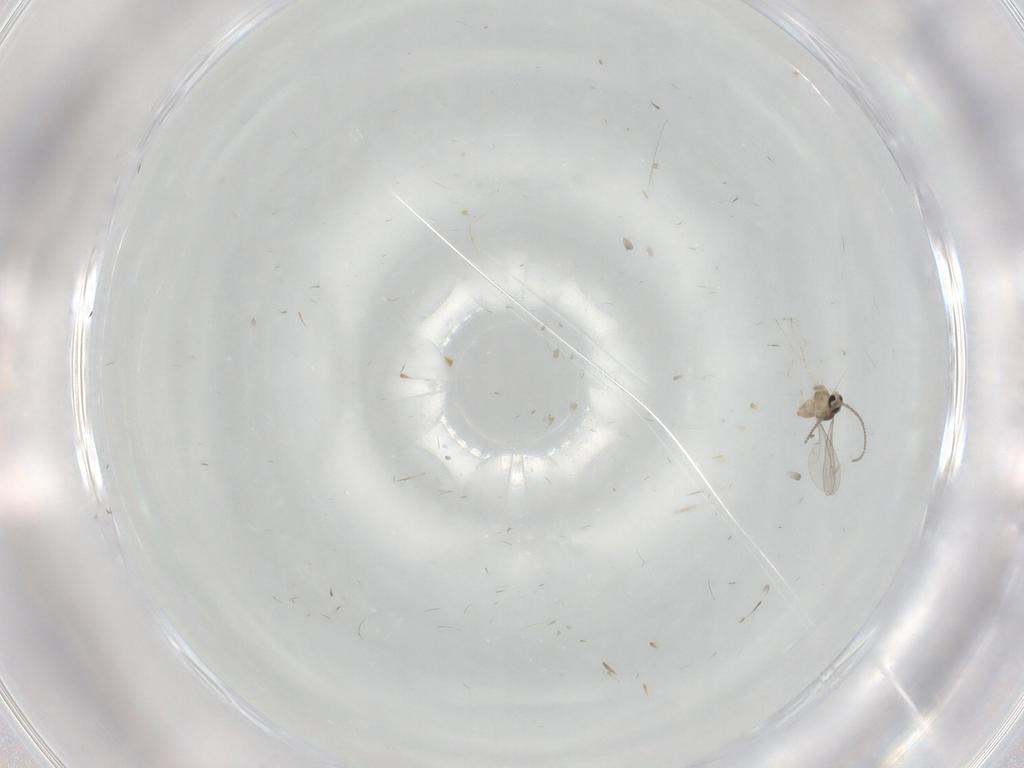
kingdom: Animalia
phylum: Arthropoda
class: Insecta
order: Diptera
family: Cecidomyiidae
